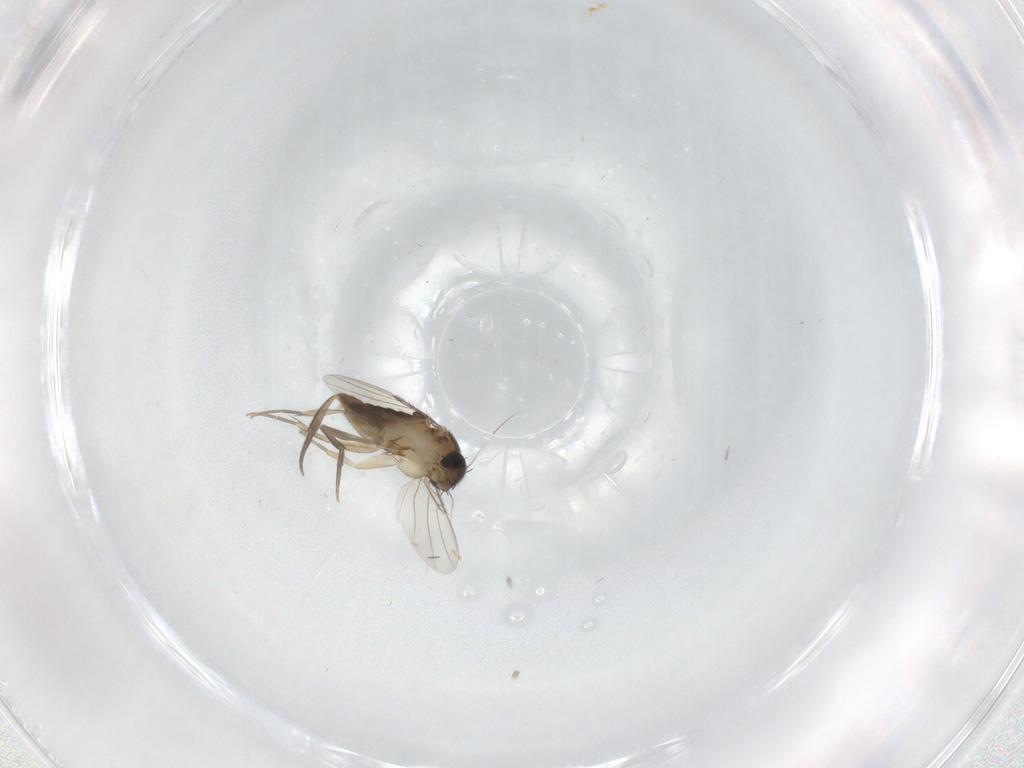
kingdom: Animalia
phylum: Arthropoda
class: Insecta
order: Diptera
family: Phoridae
